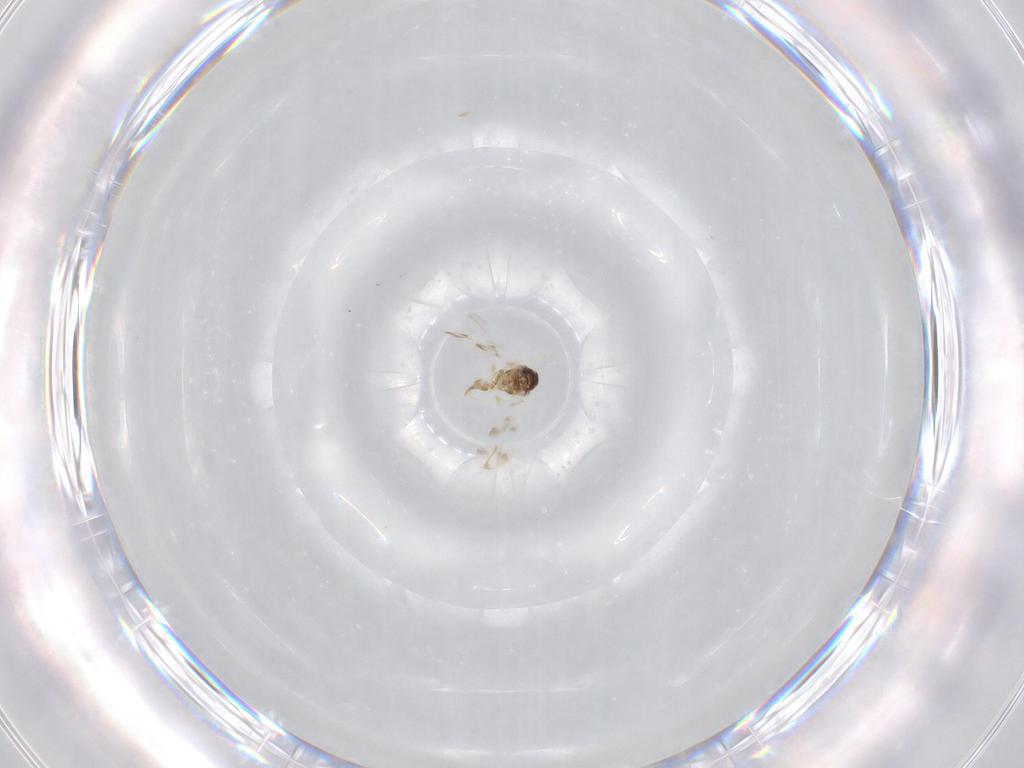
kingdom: Animalia
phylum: Arthropoda
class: Insecta
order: Hemiptera
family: Aleyrodidae
